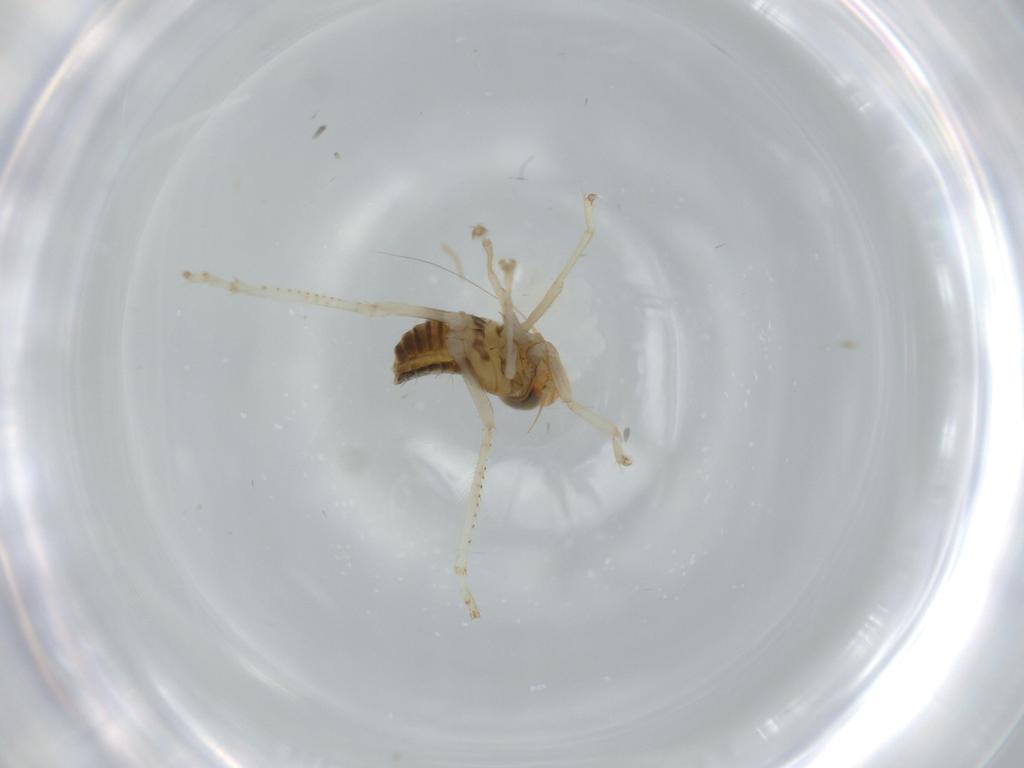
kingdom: Animalia
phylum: Arthropoda
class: Insecta
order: Hemiptera
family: Cicadellidae
